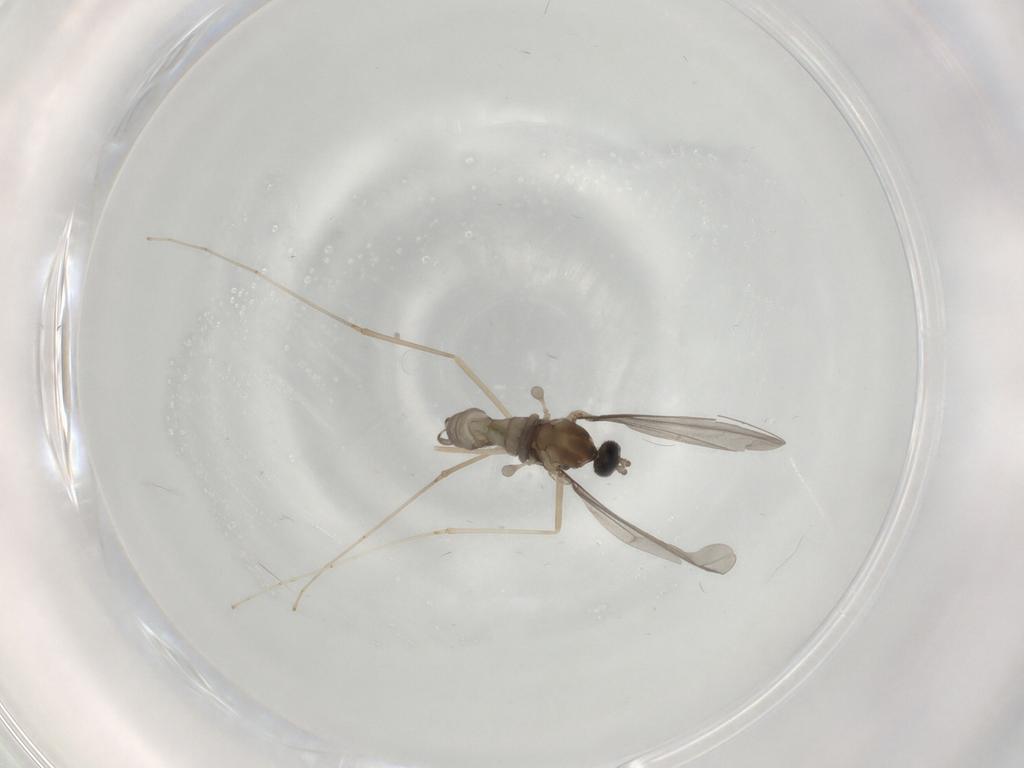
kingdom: Animalia
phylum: Arthropoda
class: Insecta
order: Diptera
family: Cecidomyiidae
